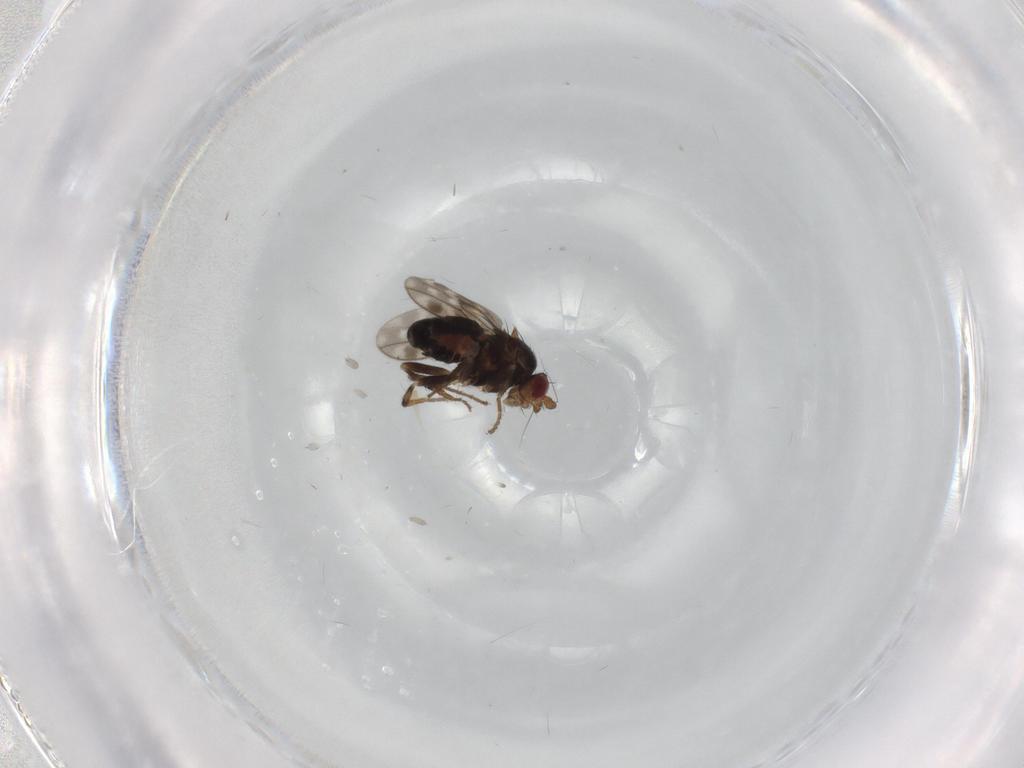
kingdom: Animalia
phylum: Arthropoda
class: Insecta
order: Diptera
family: Sphaeroceridae
